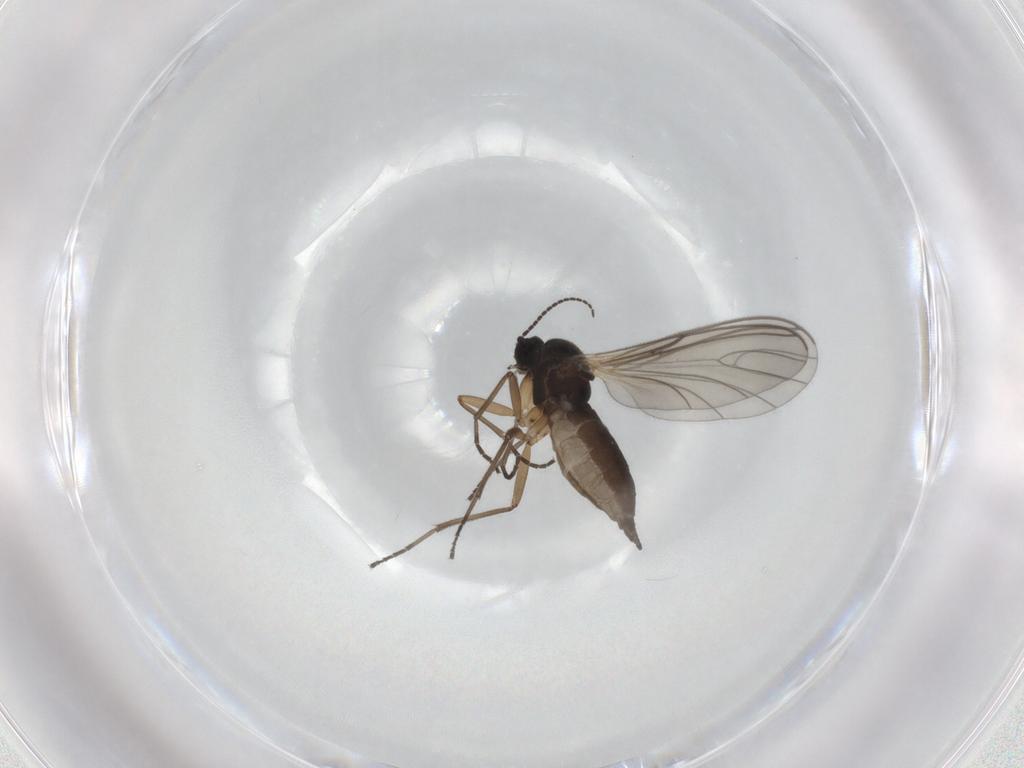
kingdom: Animalia
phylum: Arthropoda
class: Insecta
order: Diptera
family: Sciaridae
